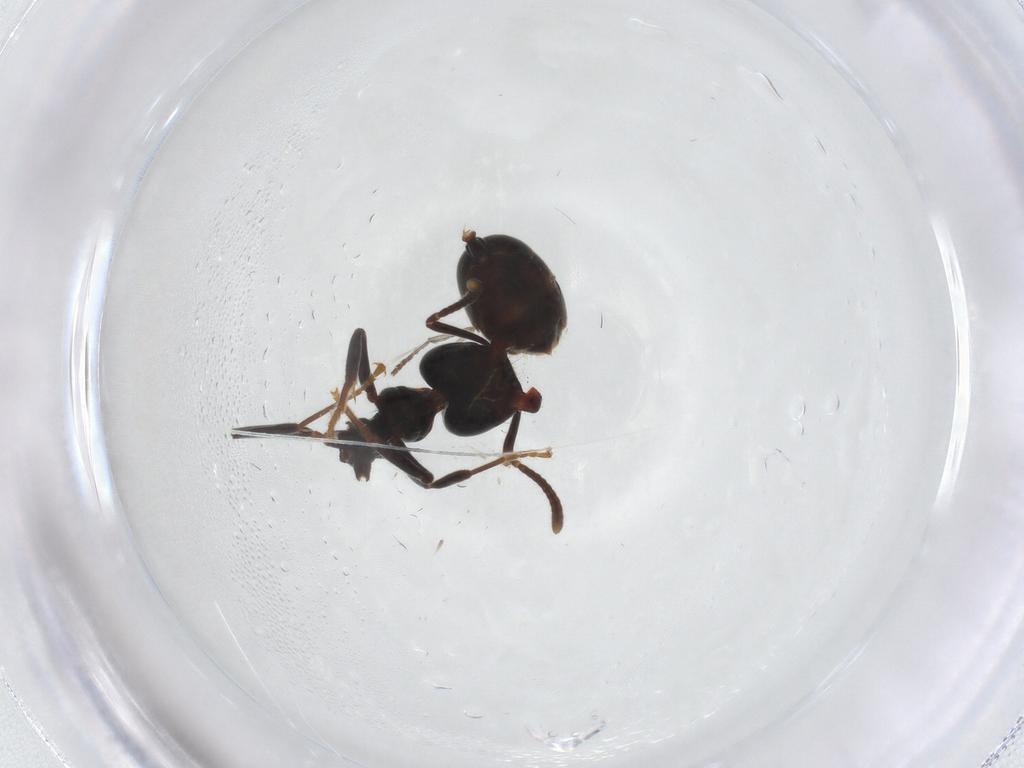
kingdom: Animalia
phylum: Arthropoda
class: Insecta
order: Hymenoptera
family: Formicidae
